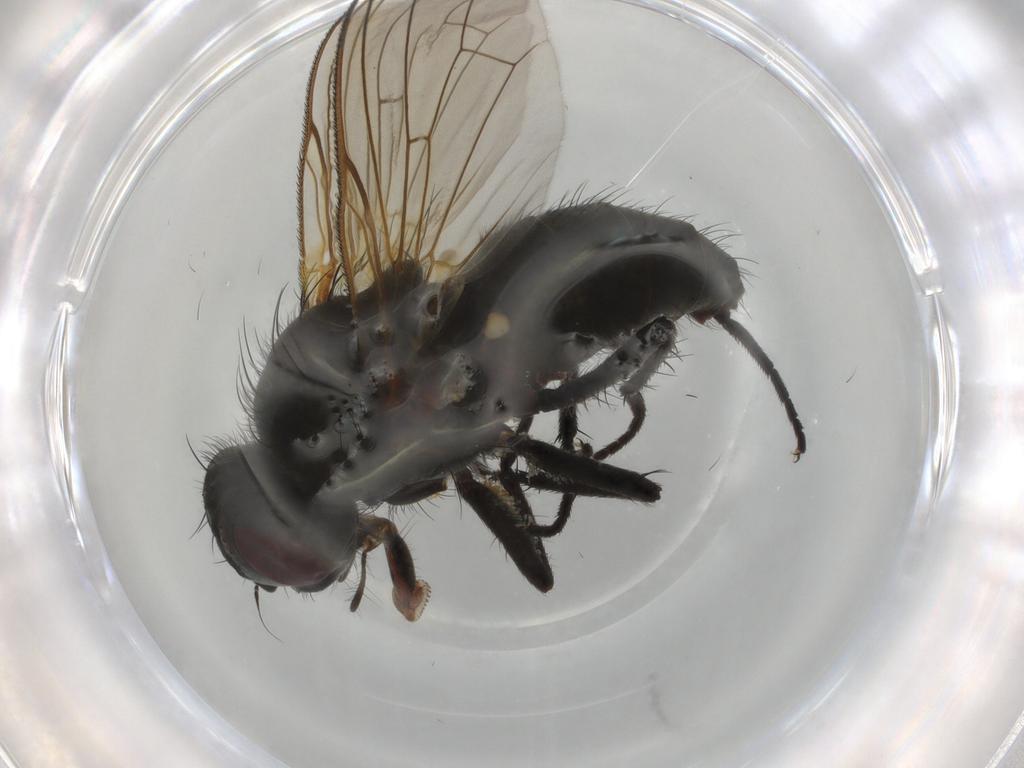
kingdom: Animalia
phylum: Arthropoda
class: Insecta
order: Diptera
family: Anthomyiidae
